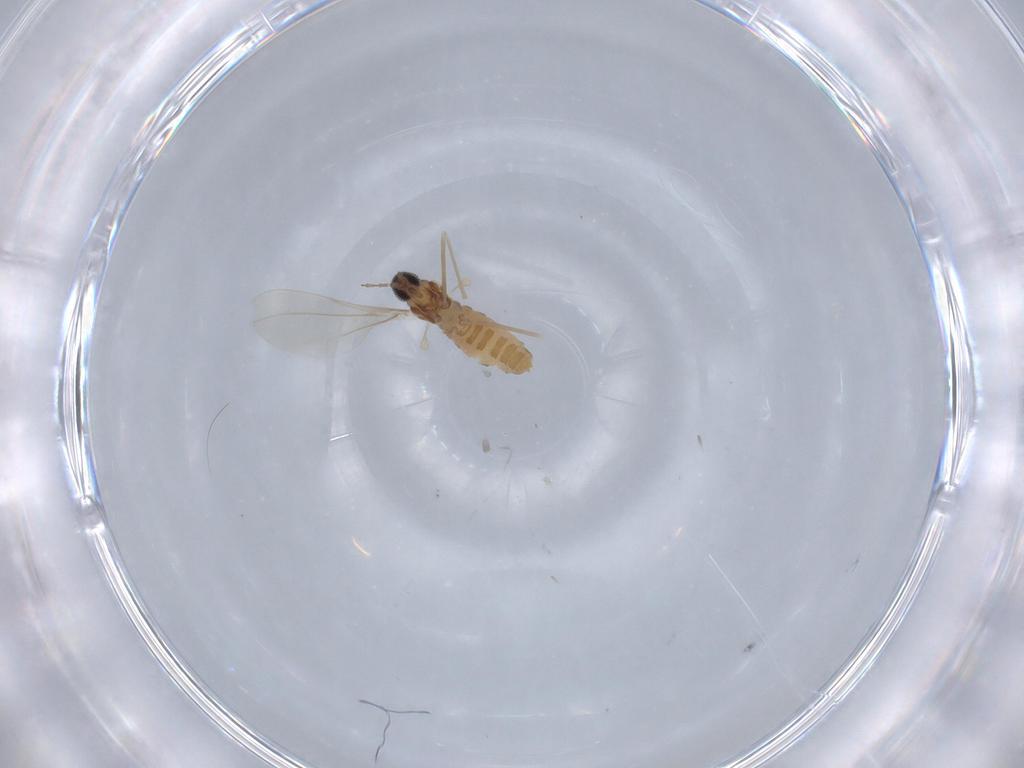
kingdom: Animalia
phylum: Arthropoda
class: Insecta
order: Diptera
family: Cecidomyiidae
